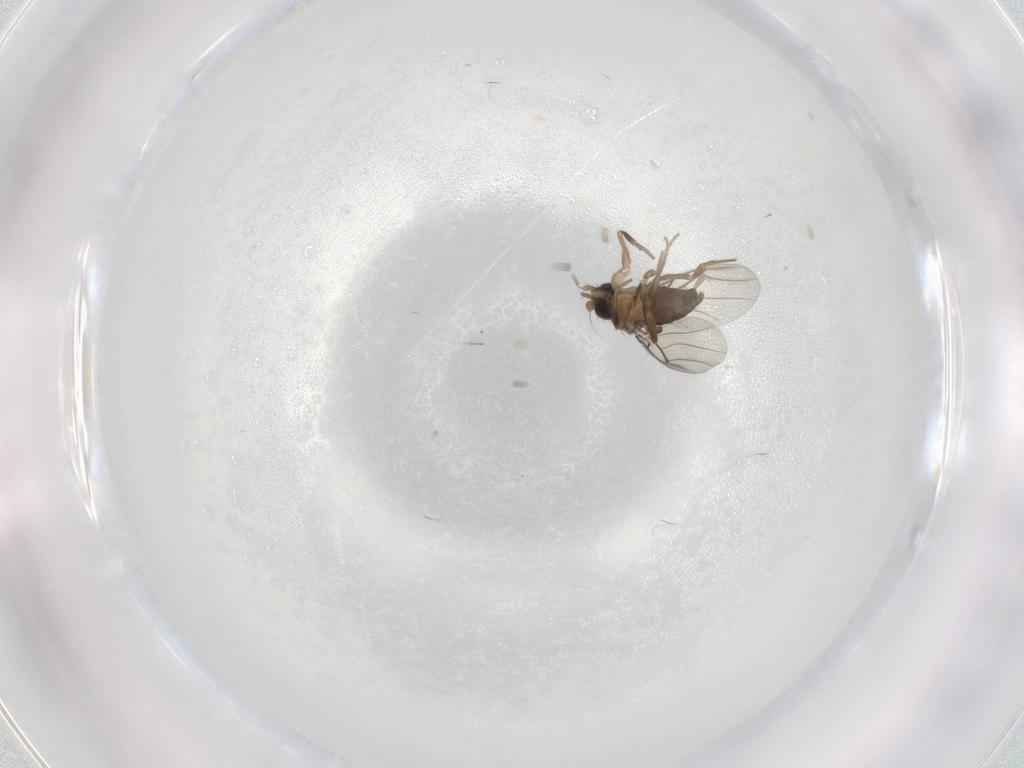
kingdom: Animalia
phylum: Arthropoda
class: Insecta
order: Diptera
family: Phoridae
